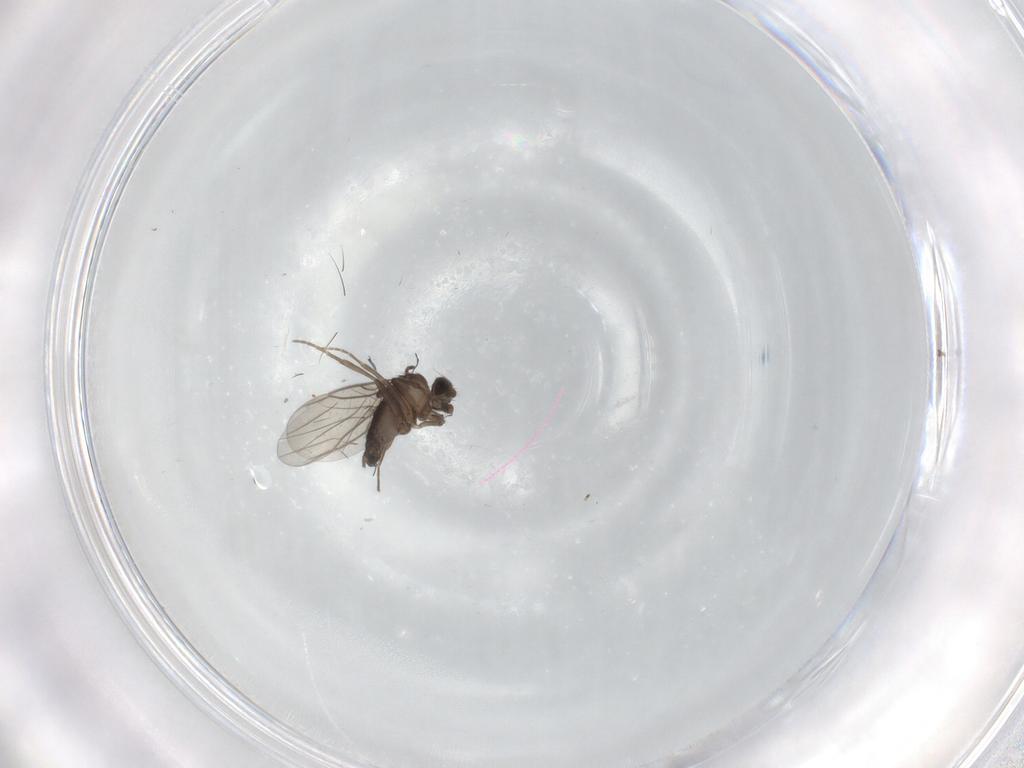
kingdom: Animalia
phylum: Arthropoda
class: Insecta
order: Diptera
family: Phoridae
